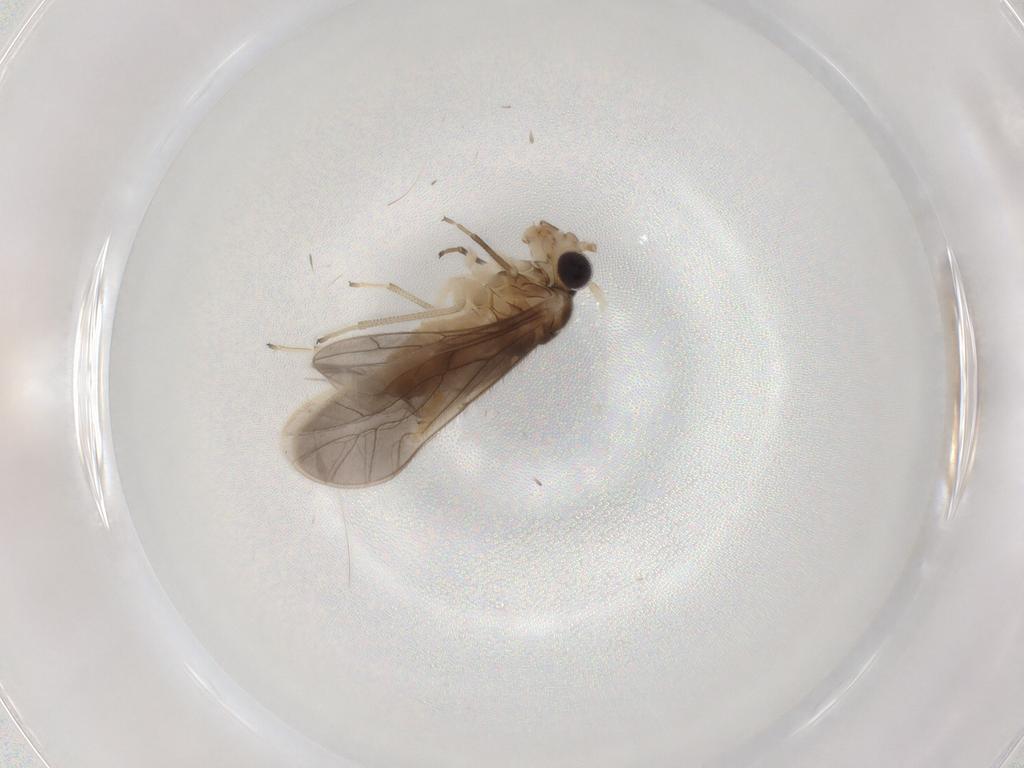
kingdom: Animalia
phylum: Arthropoda
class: Insecta
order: Psocodea
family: Caeciliusidae
